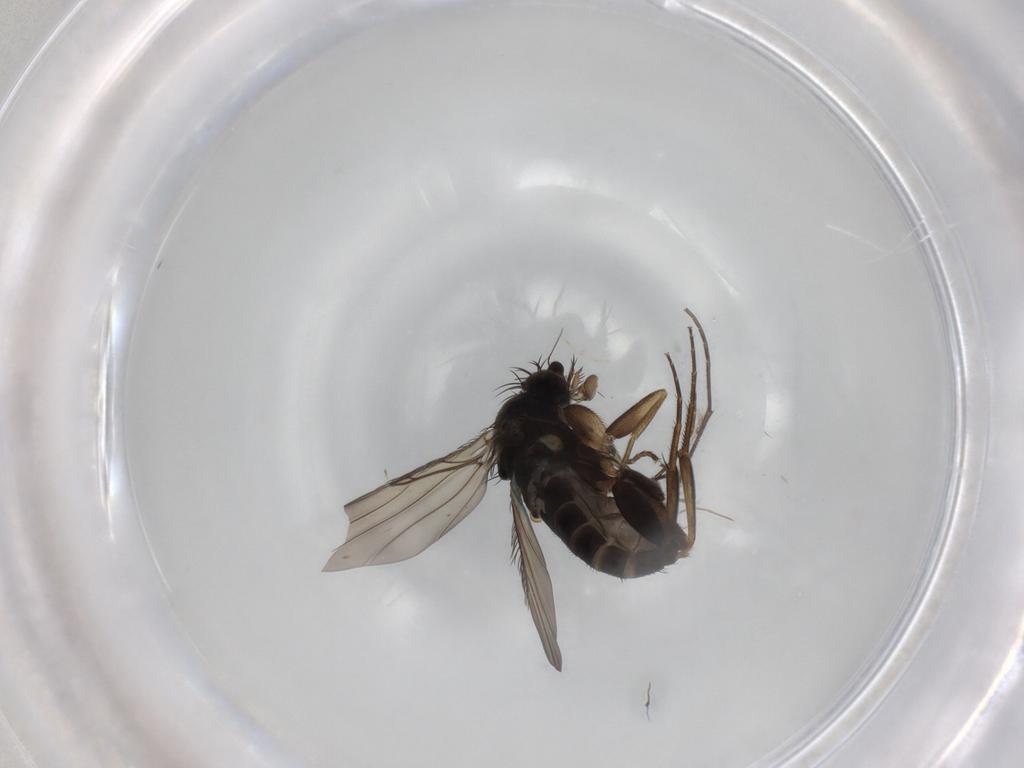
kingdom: Animalia
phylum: Arthropoda
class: Insecta
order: Diptera
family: Phoridae
